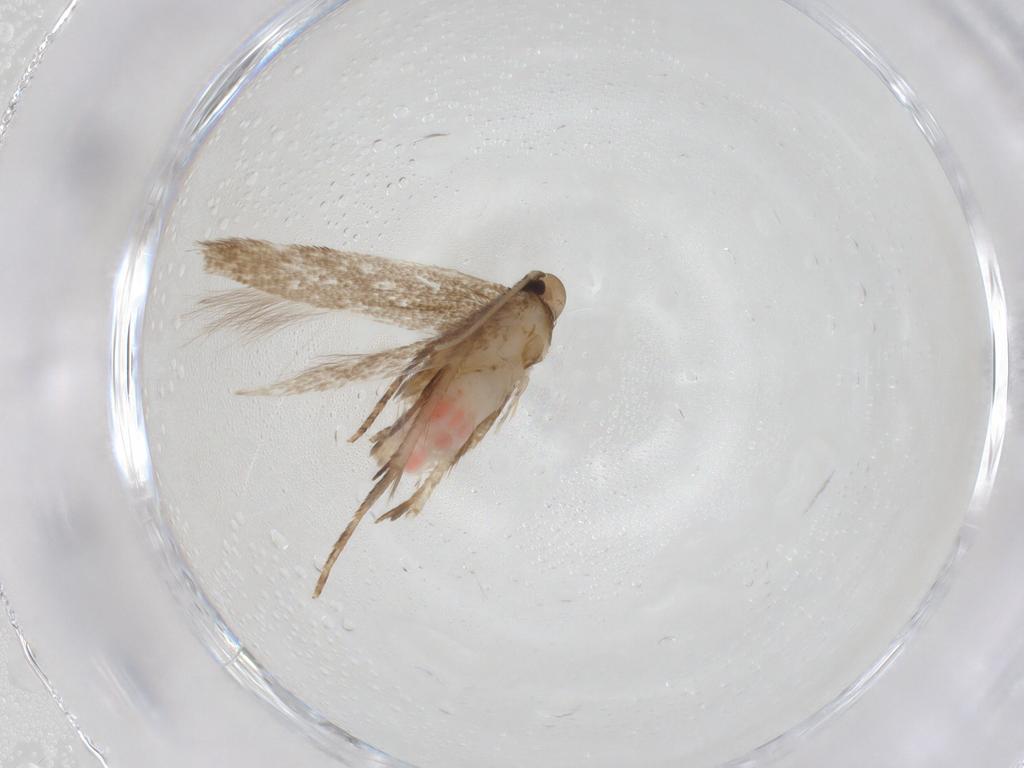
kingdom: Animalia
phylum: Arthropoda
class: Insecta
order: Lepidoptera
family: Cosmopterigidae
